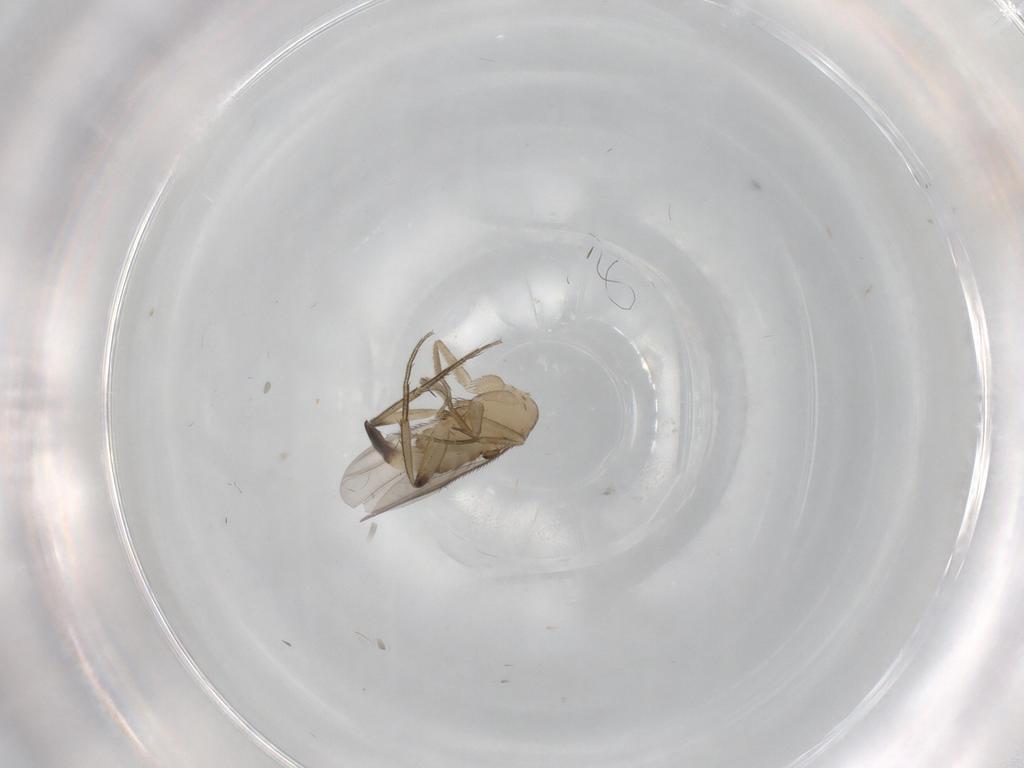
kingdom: Animalia
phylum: Arthropoda
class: Insecta
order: Diptera
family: Phoridae
